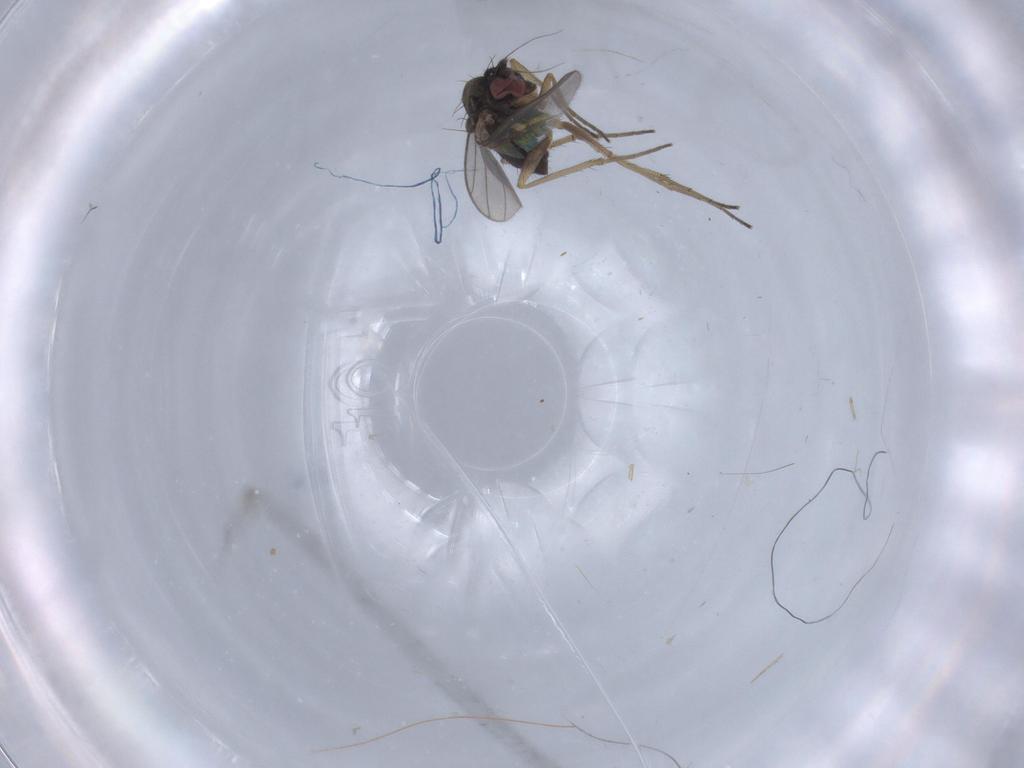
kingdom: Animalia
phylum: Arthropoda
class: Insecta
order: Diptera
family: Dolichopodidae
